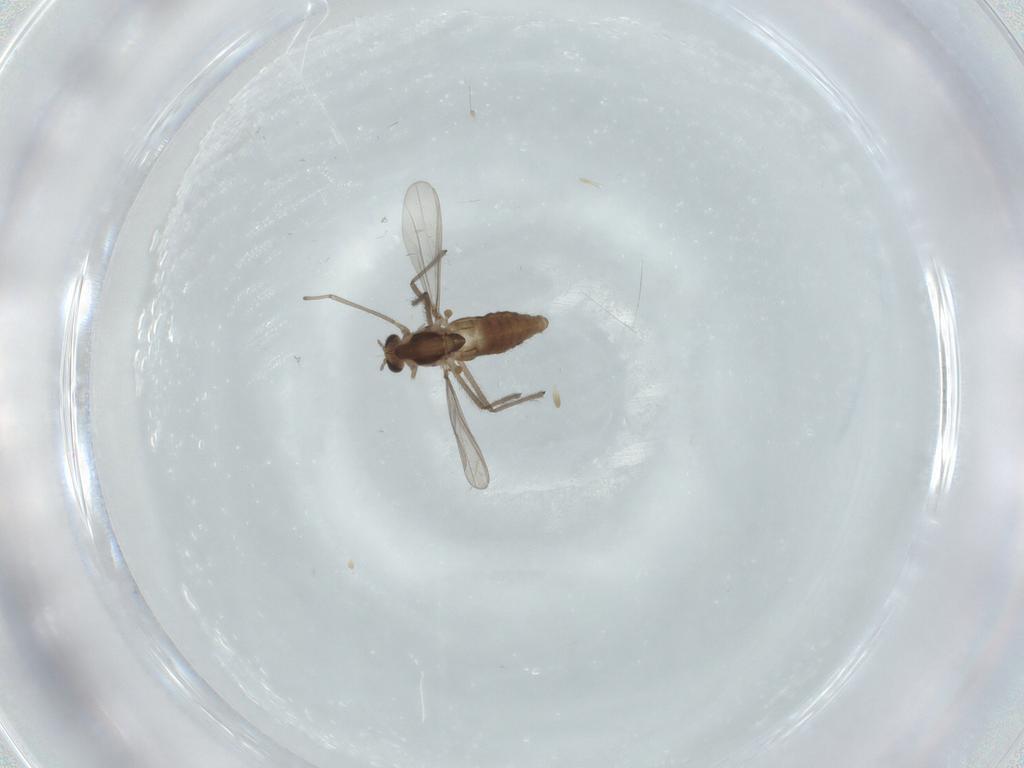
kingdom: Animalia
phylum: Arthropoda
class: Insecta
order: Diptera
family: Chironomidae
